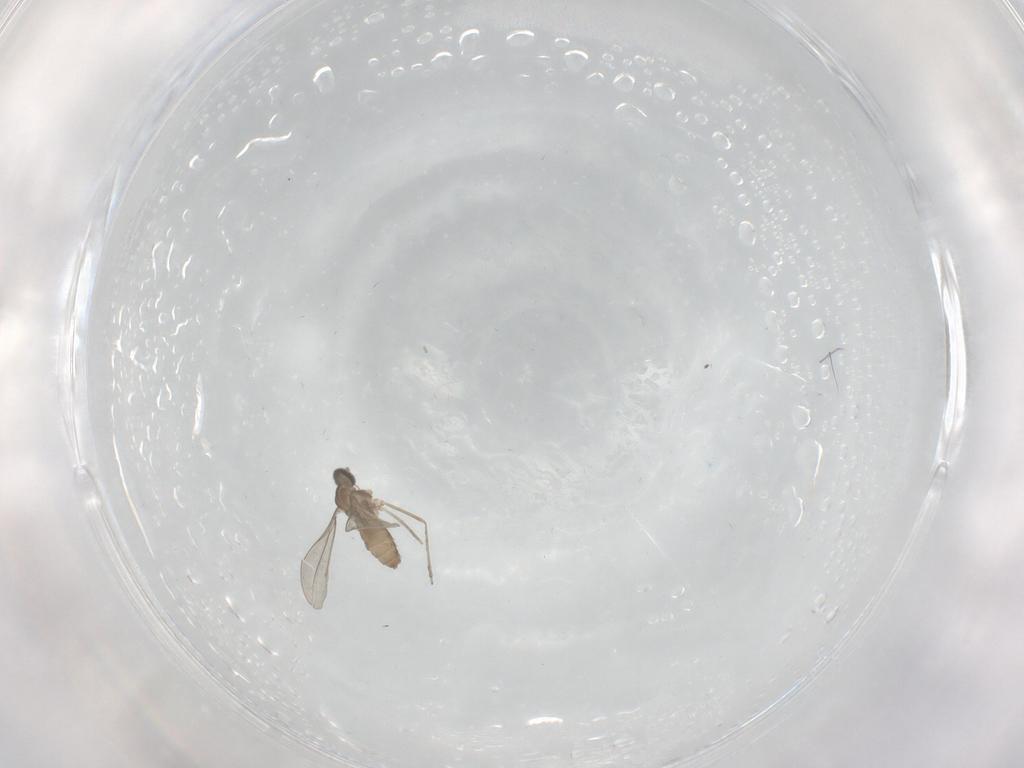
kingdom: Animalia
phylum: Arthropoda
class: Insecta
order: Diptera
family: Cecidomyiidae
